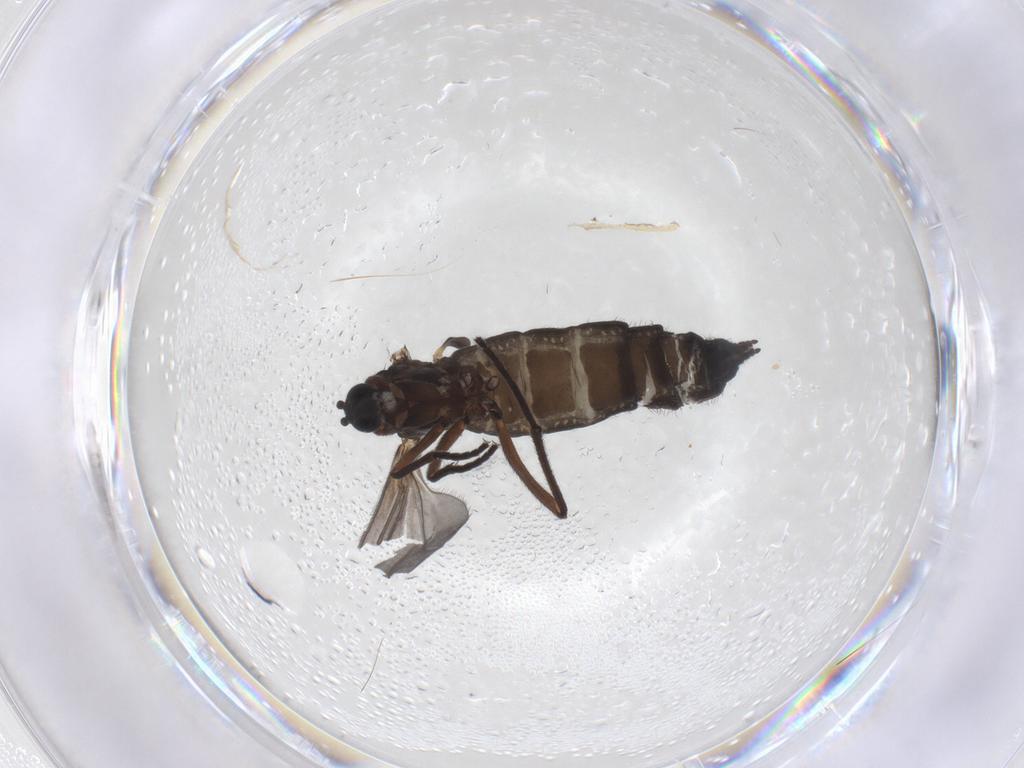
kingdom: Animalia
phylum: Arthropoda
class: Insecta
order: Diptera
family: Sciaridae
